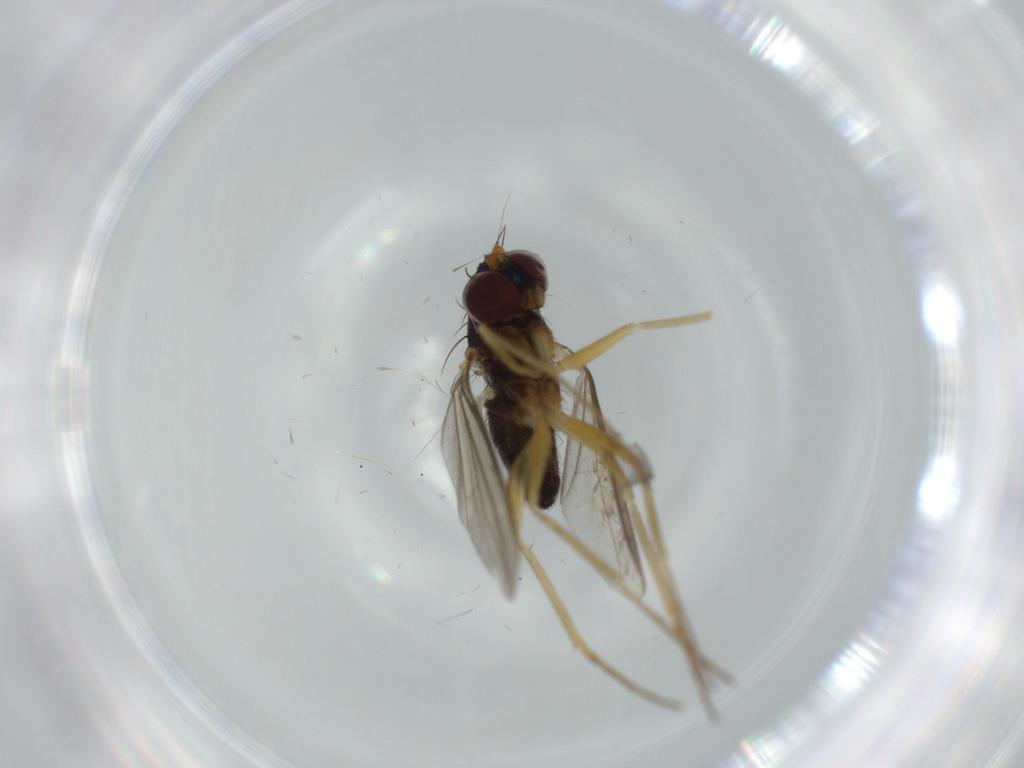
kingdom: Animalia
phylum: Arthropoda
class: Insecta
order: Diptera
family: Dolichopodidae
